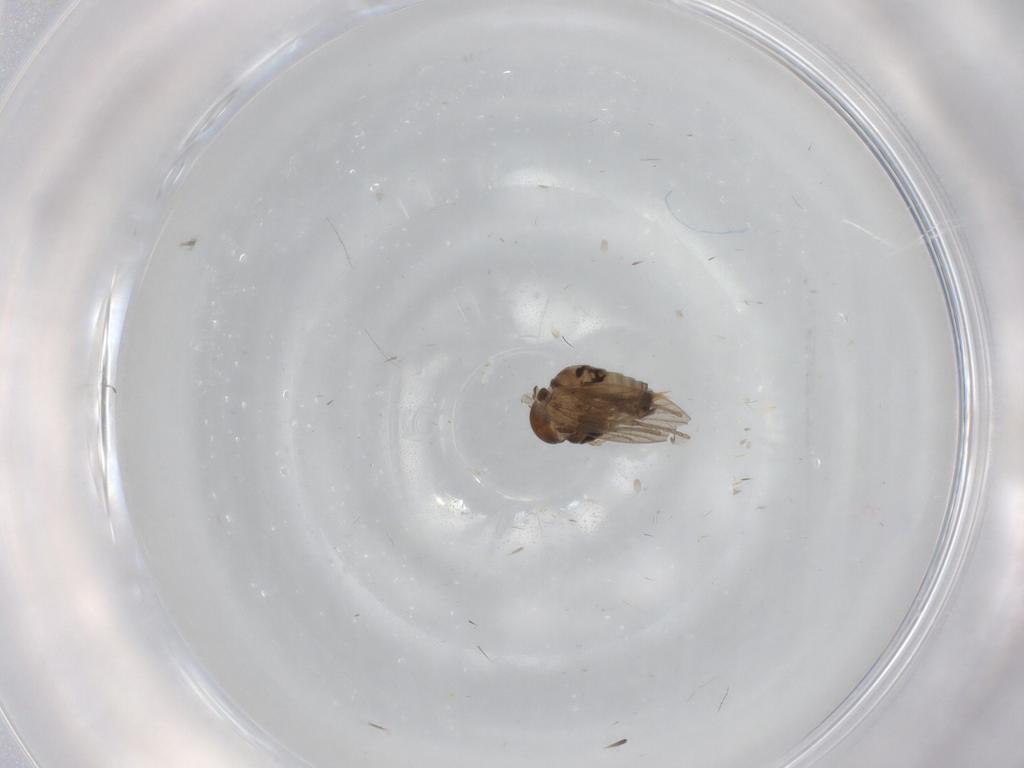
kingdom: Animalia
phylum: Arthropoda
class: Insecta
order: Diptera
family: Psychodidae
